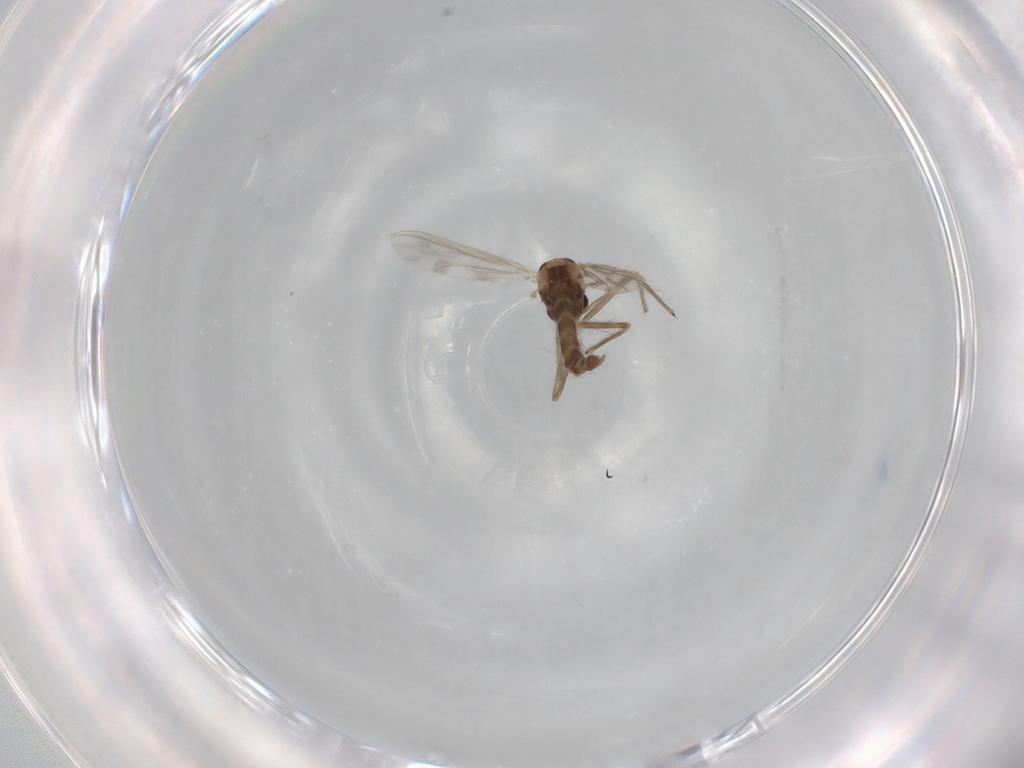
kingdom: Animalia
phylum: Arthropoda
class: Insecta
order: Diptera
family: Chironomidae
